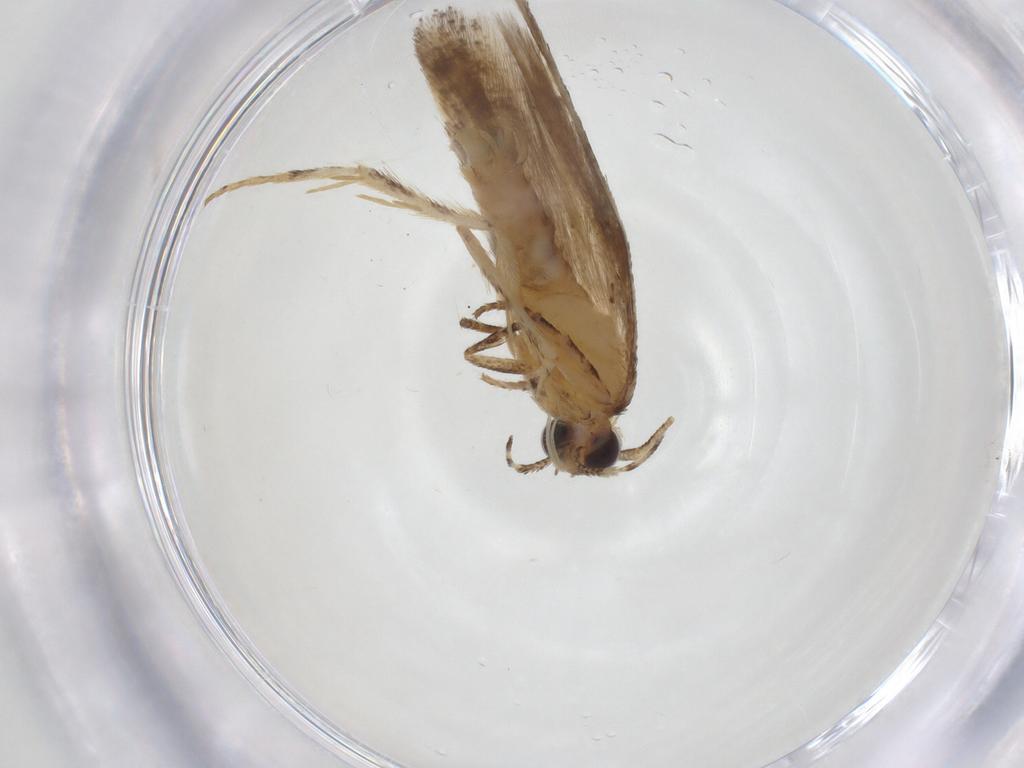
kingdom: Animalia
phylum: Arthropoda
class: Insecta
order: Lepidoptera
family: Gelechiidae
